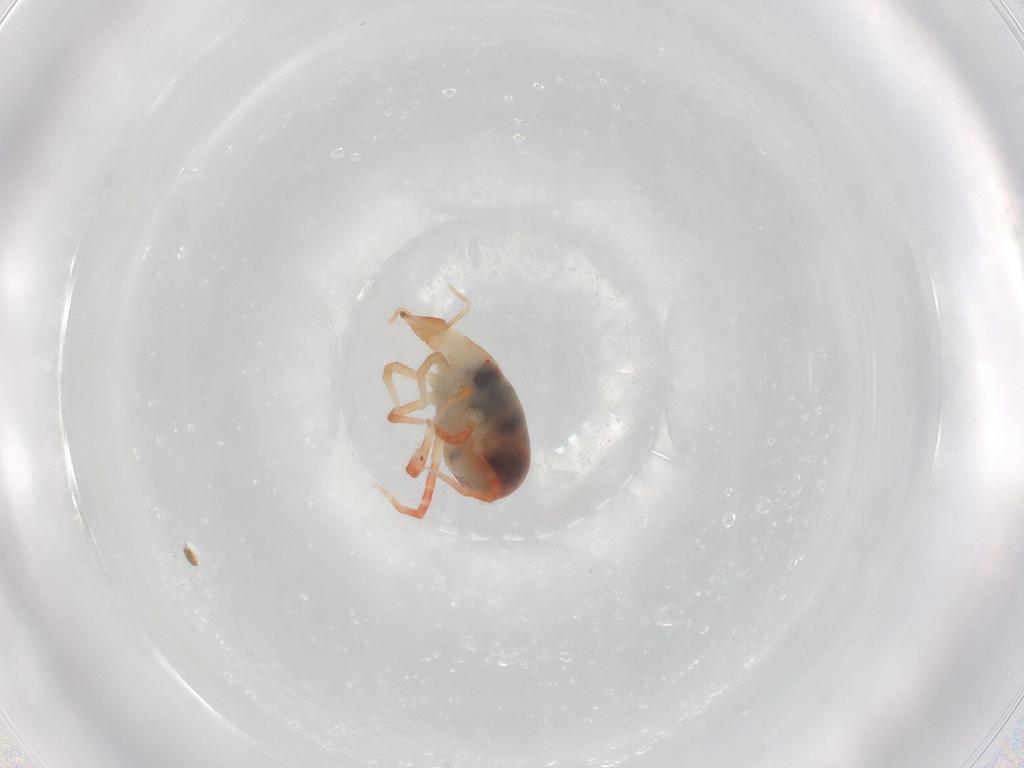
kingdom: Animalia
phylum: Arthropoda
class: Arachnida
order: Trombidiformes
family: Bdellidae
